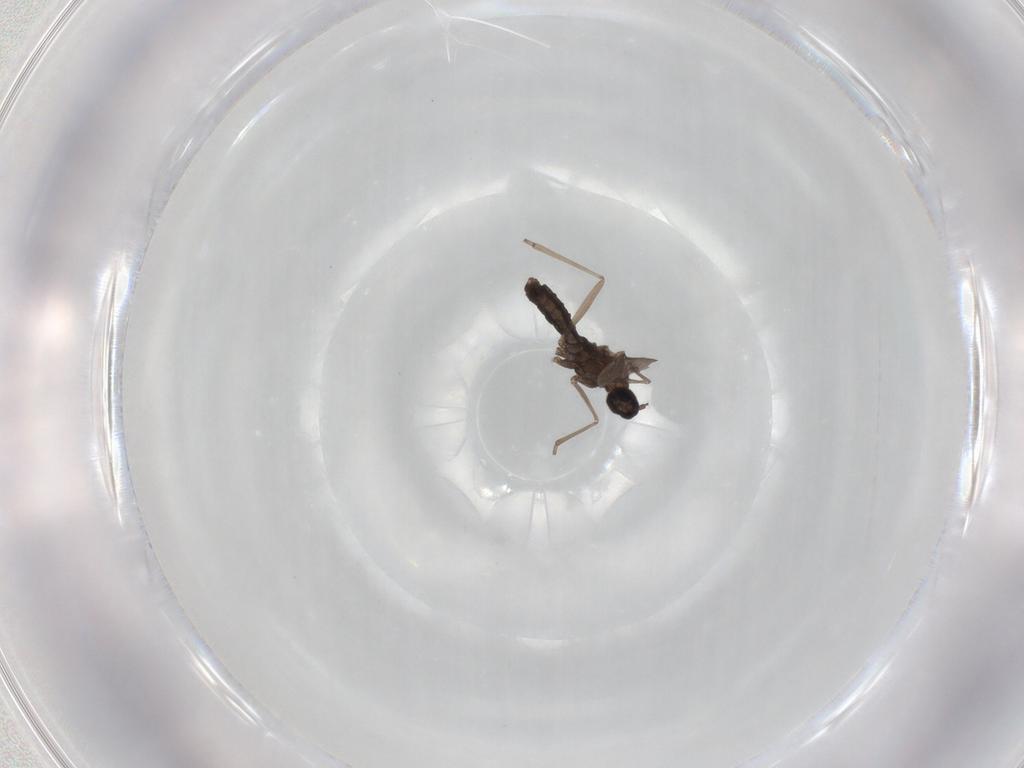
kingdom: Animalia
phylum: Arthropoda
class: Insecta
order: Diptera
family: Cecidomyiidae
